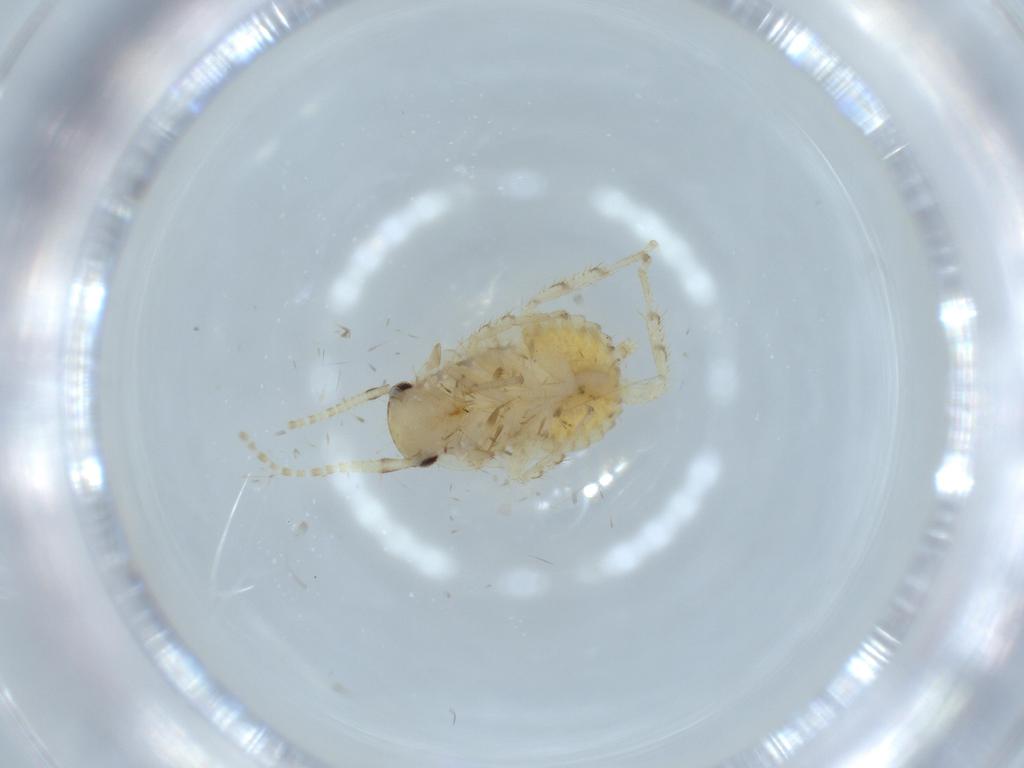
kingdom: Animalia
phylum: Arthropoda
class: Insecta
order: Blattodea
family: Ectobiidae
